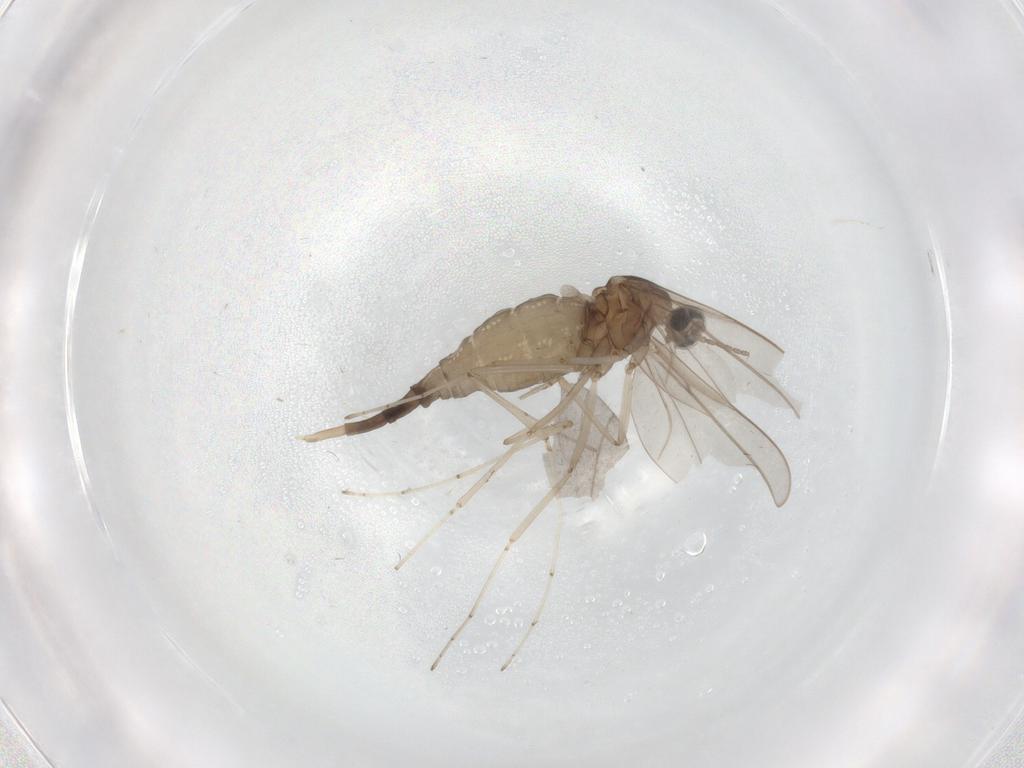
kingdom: Animalia
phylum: Arthropoda
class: Insecta
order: Diptera
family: Cecidomyiidae
